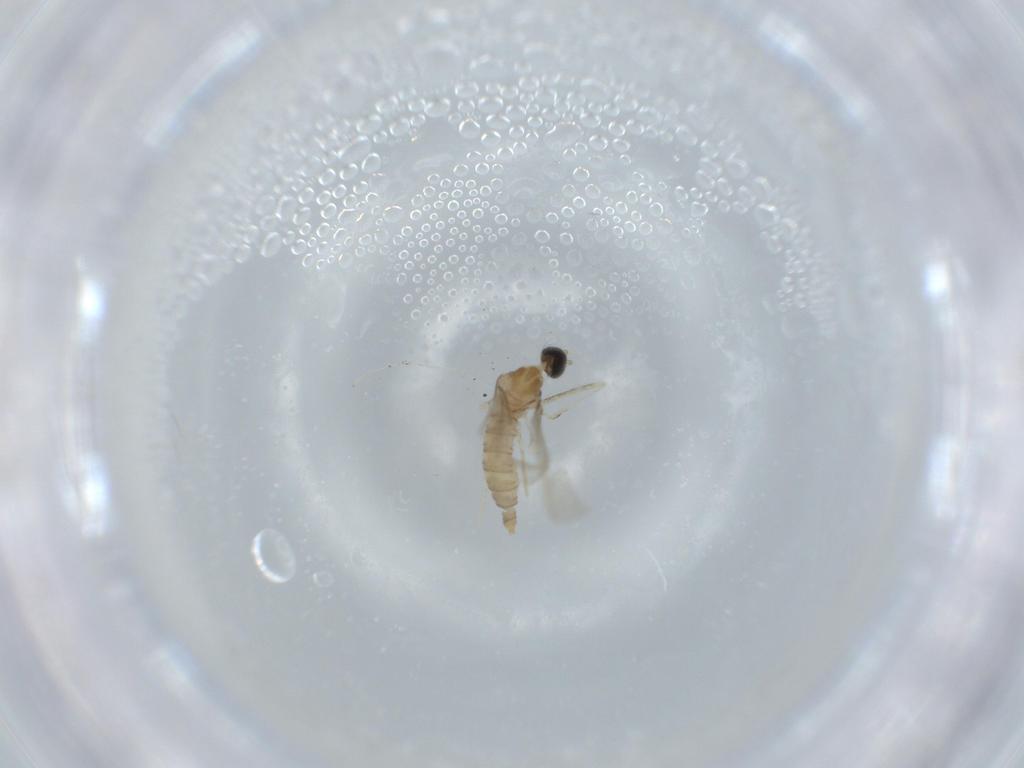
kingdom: Animalia
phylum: Arthropoda
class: Insecta
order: Diptera
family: Cecidomyiidae
